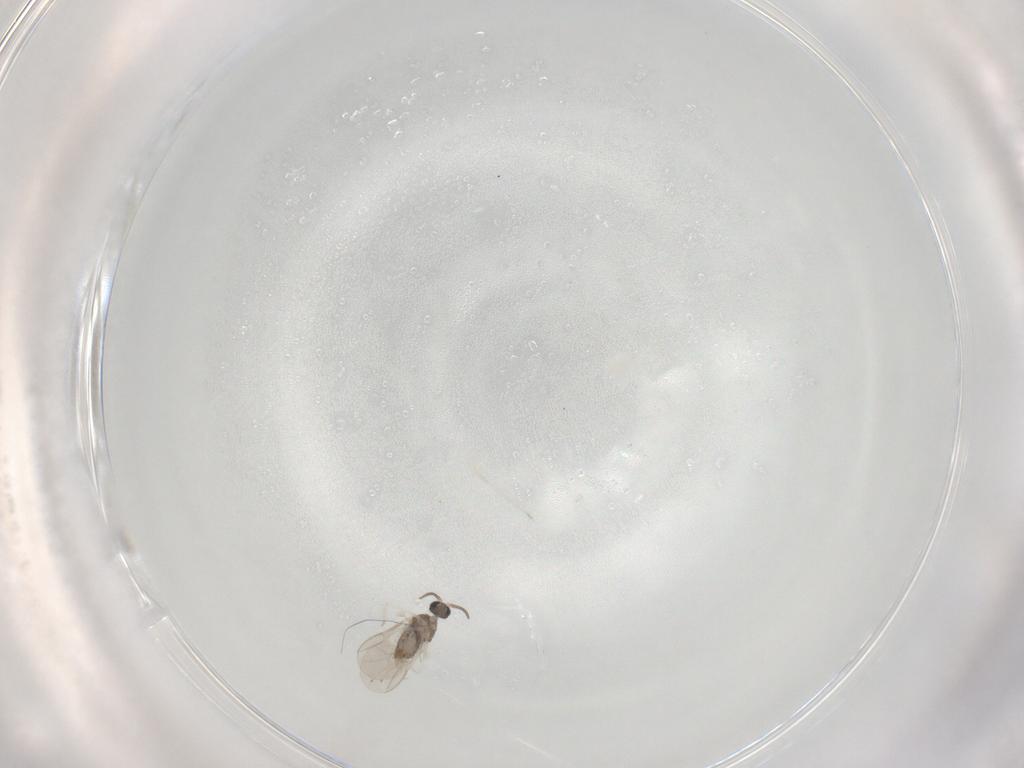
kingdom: Animalia
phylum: Arthropoda
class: Insecta
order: Diptera
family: Cecidomyiidae
